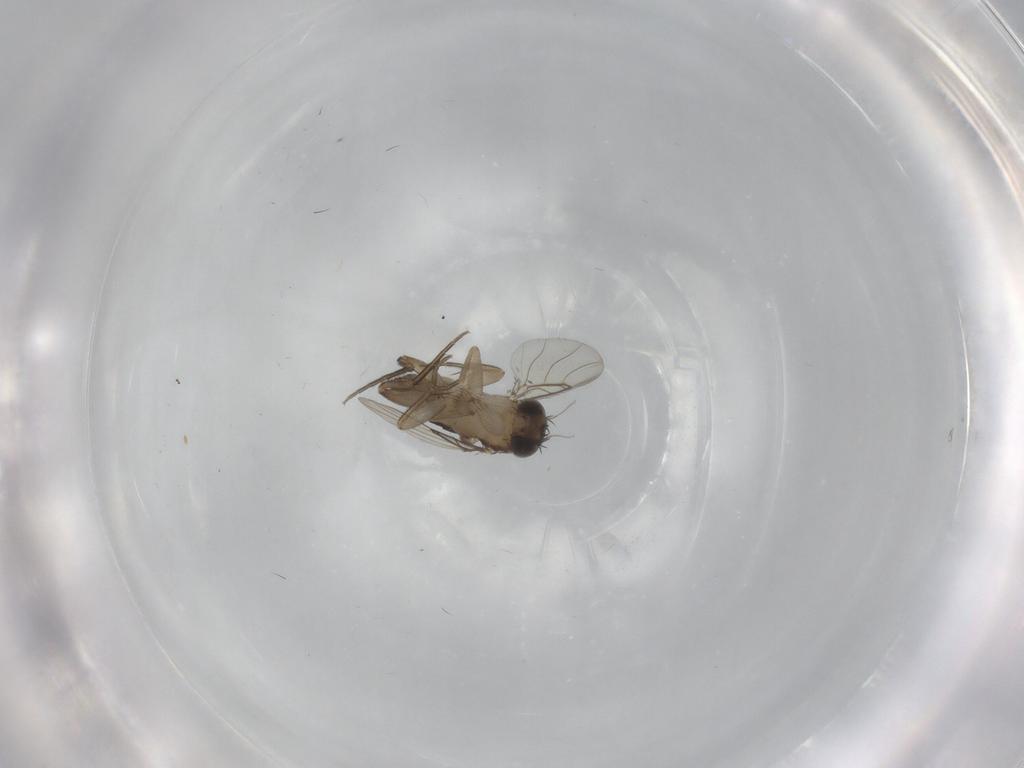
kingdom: Animalia
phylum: Arthropoda
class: Insecta
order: Diptera
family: Phoridae
